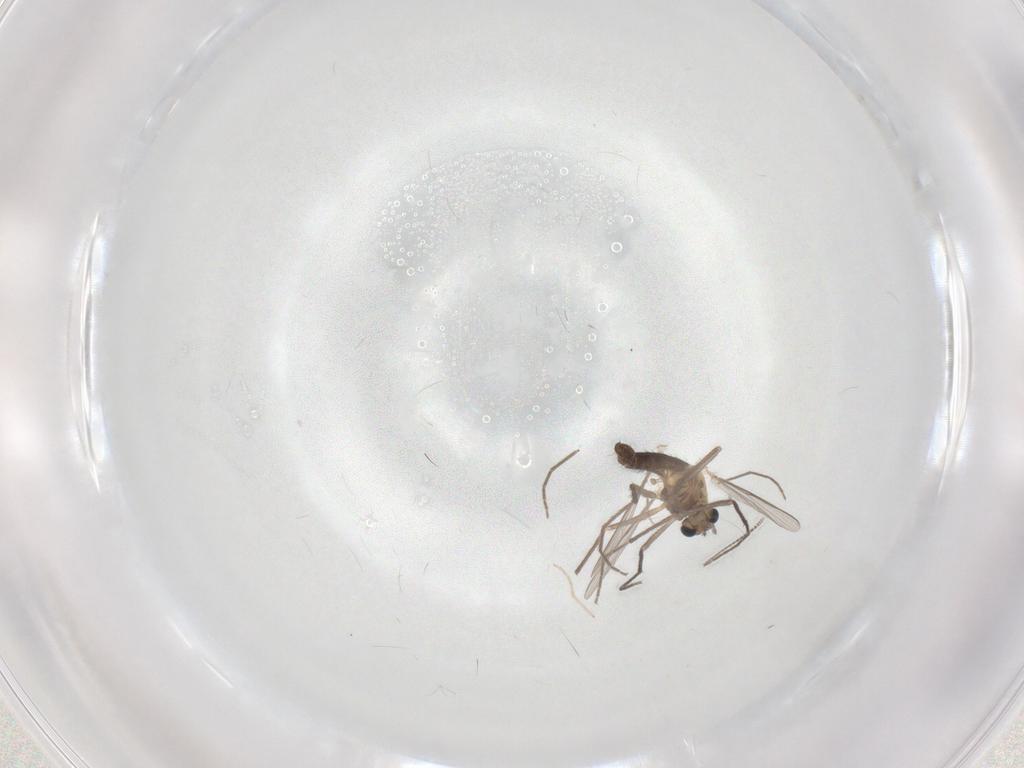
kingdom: Animalia
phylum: Arthropoda
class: Insecta
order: Diptera
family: Chironomidae
